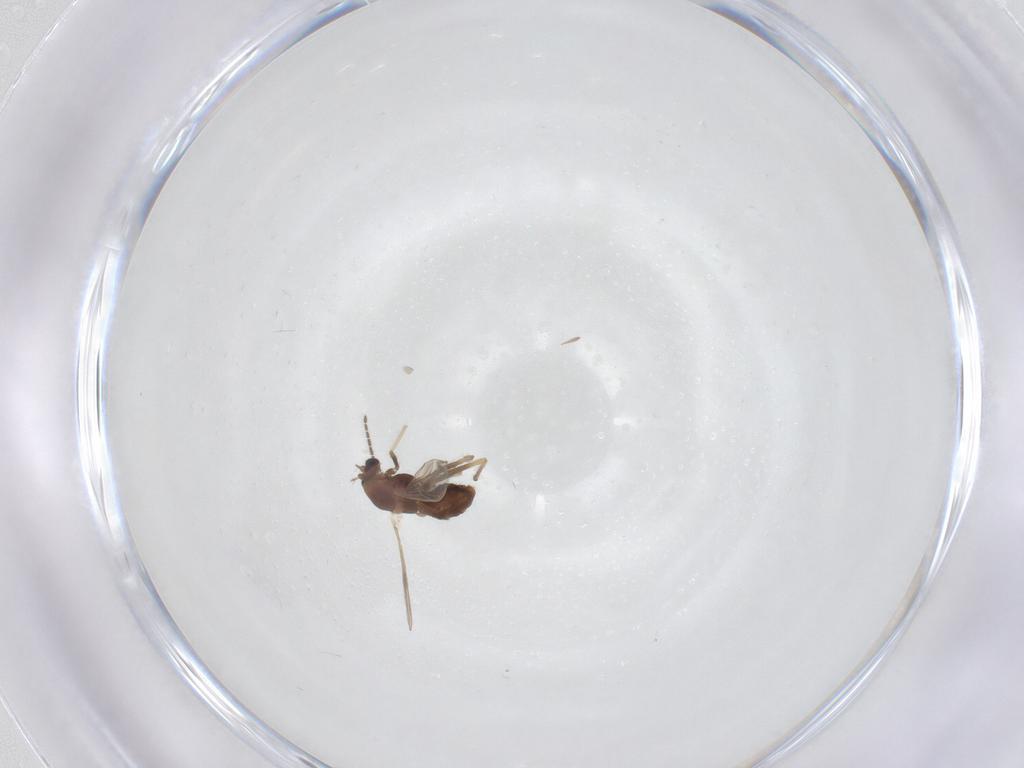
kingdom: Animalia
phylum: Arthropoda
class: Insecta
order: Diptera
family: Chironomidae
